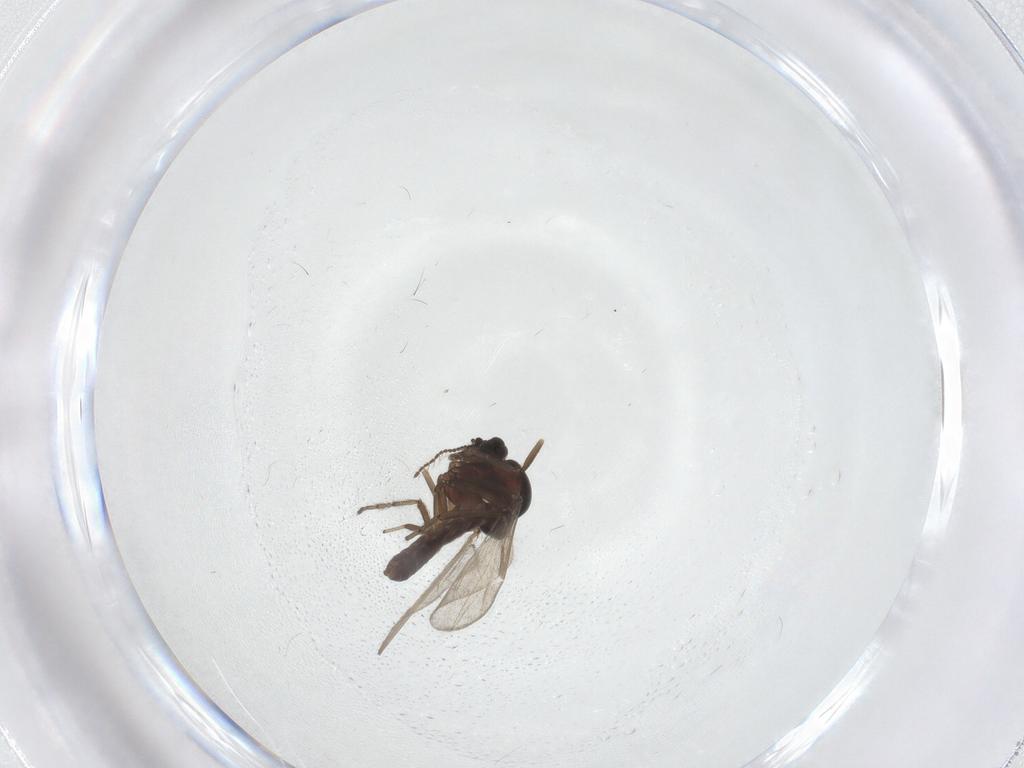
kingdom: Animalia
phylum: Arthropoda
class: Insecta
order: Diptera
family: Ceratopogonidae
